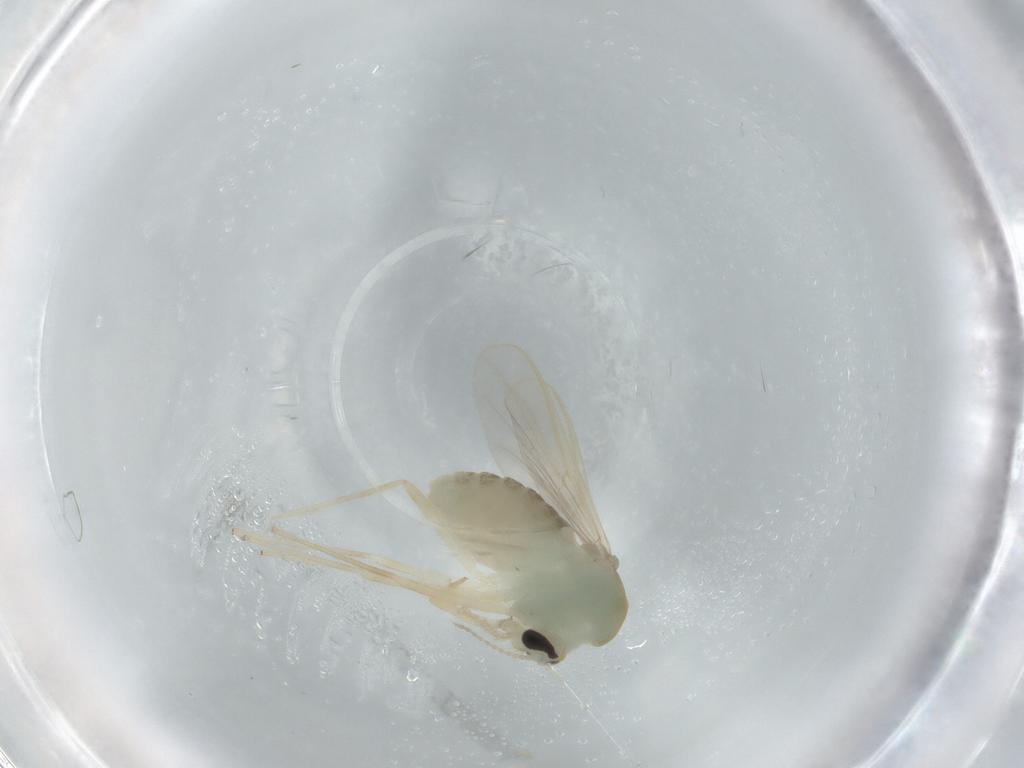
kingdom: Animalia
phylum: Arthropoda
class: Insecta
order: Diptera
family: Chironomidae
